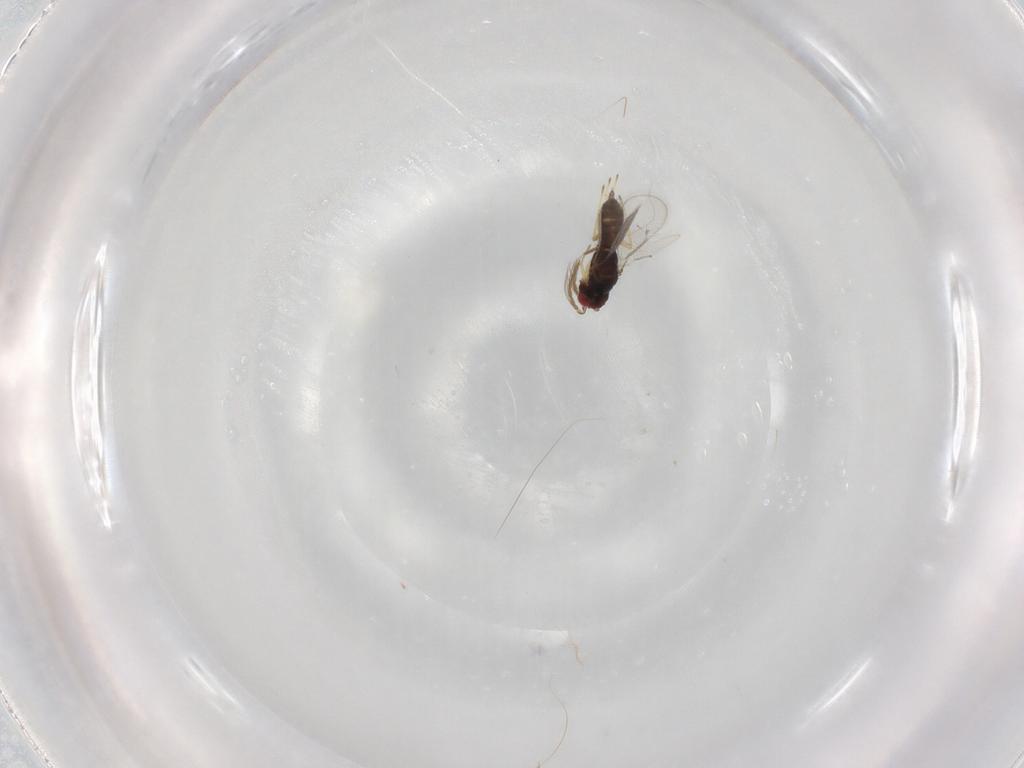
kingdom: Animalia
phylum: Arthropoda
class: Insecta
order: Hymenoptera
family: Eulophidae
